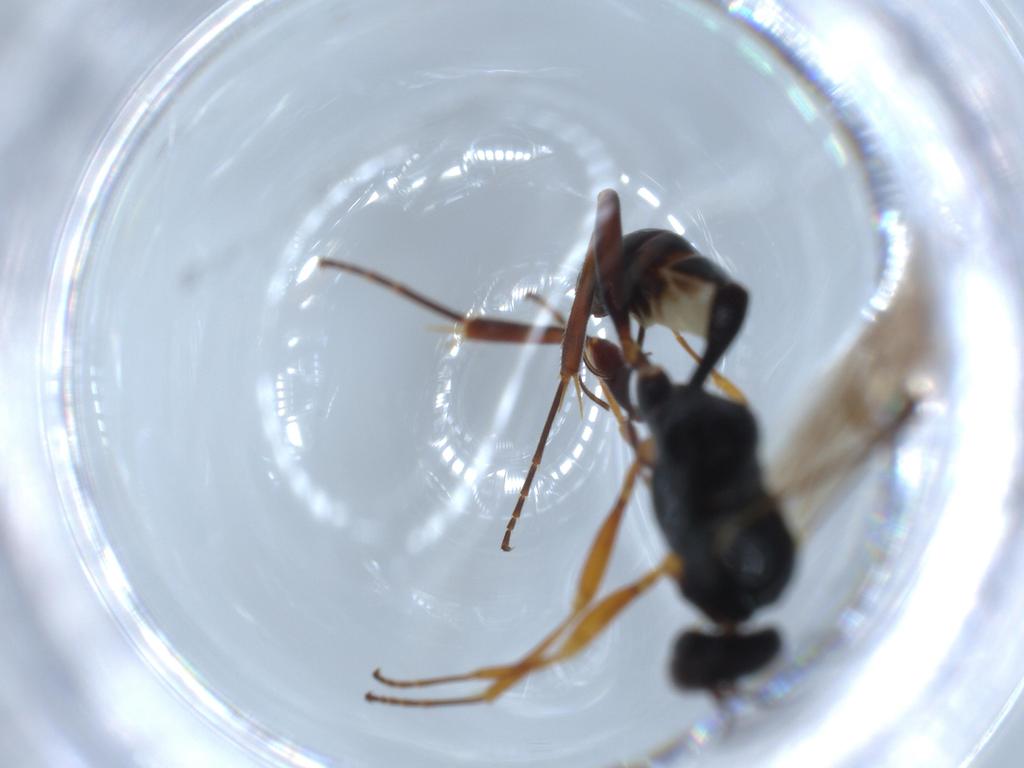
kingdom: Animalia
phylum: Arthropoda
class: Insecta
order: Hymenoptera
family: Ichneumonidae
